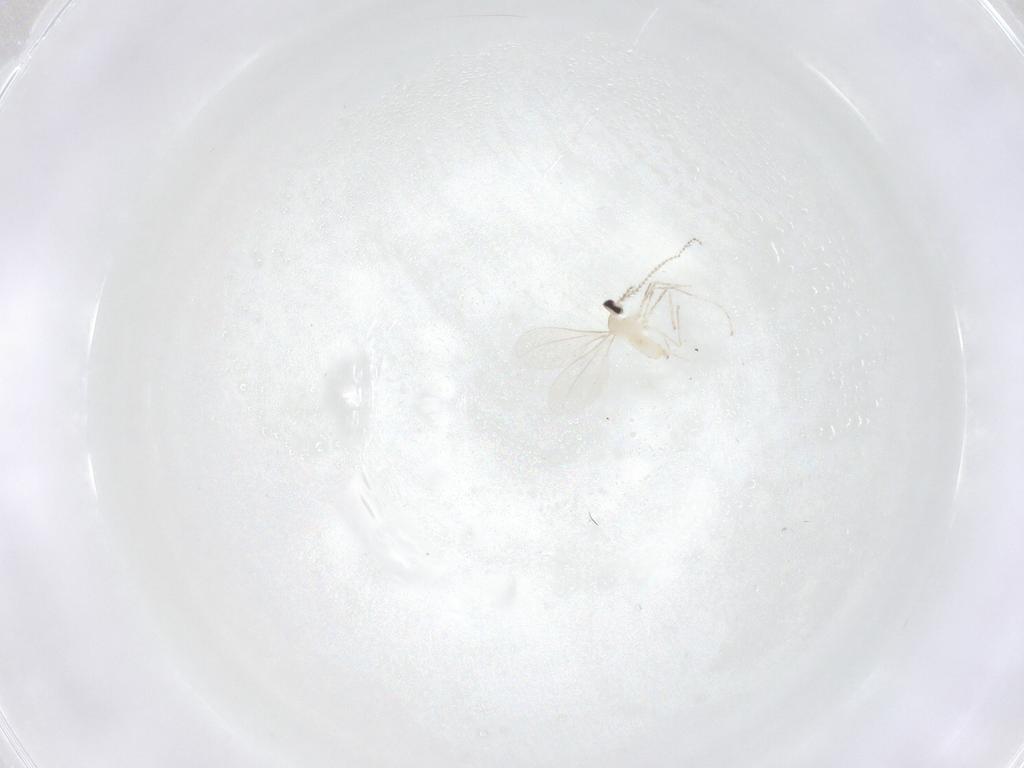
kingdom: Animalia
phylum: Arthropoda
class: Insecta
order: Diptera
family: Cecidomyiidae
